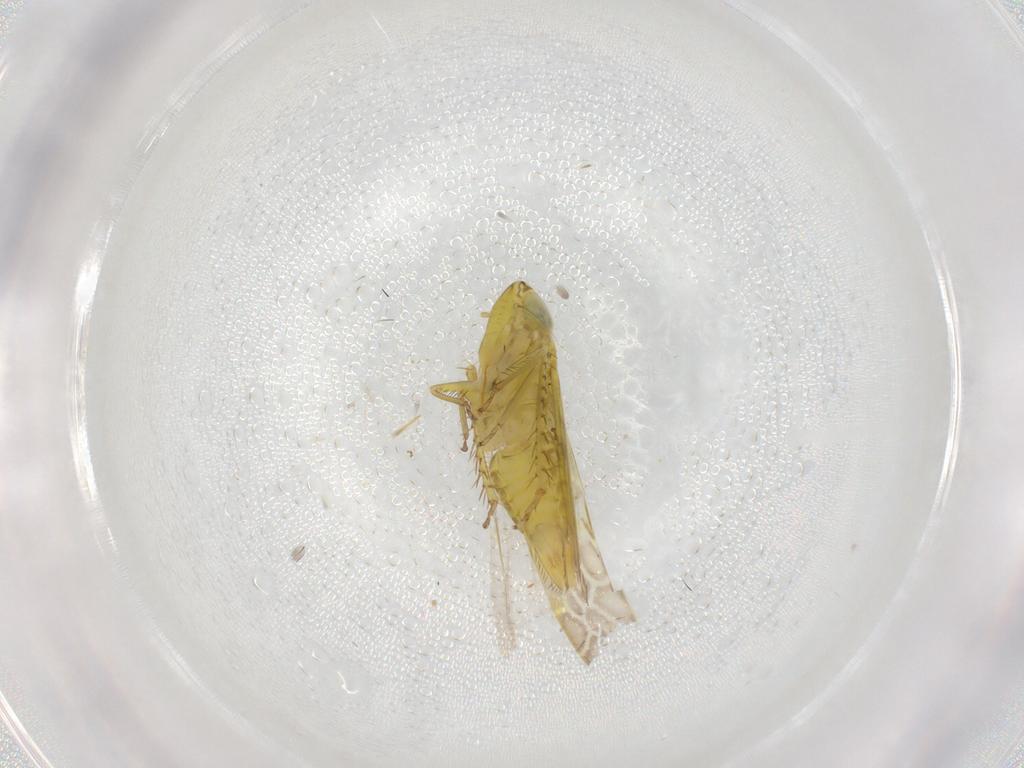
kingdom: Animalia
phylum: Arthropoda
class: Insecta
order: Hemiptera
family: Cicadellidae
